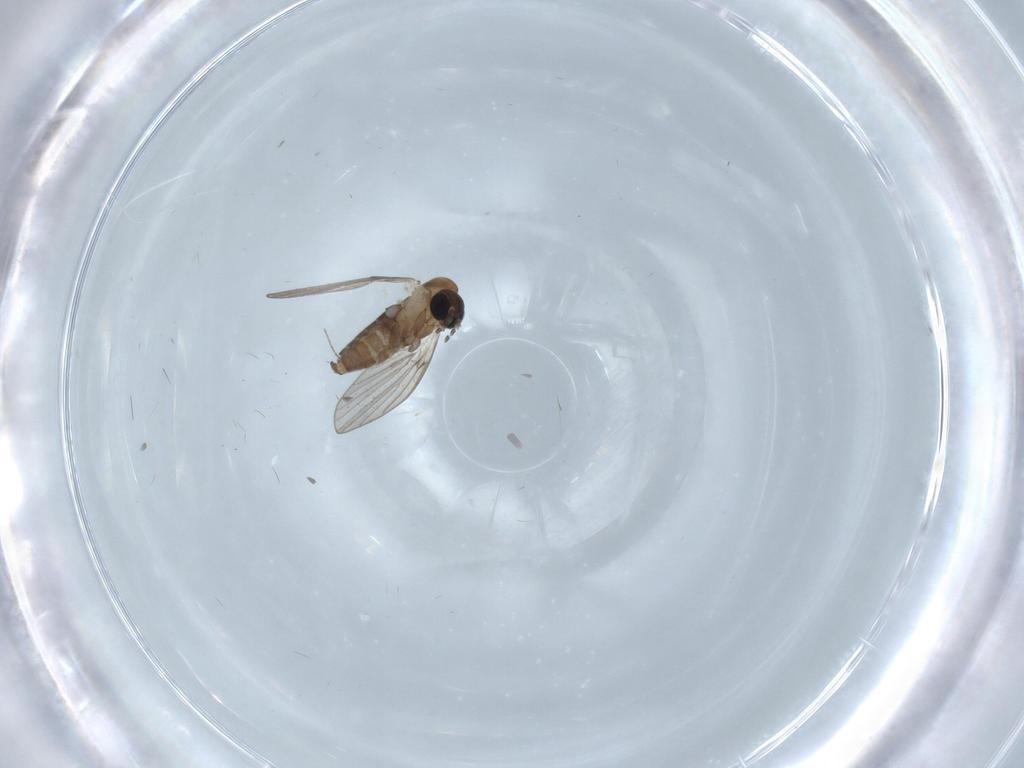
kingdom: Animalia
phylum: Arthropoda
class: Insecta
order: Diptera
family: Psychodidae
